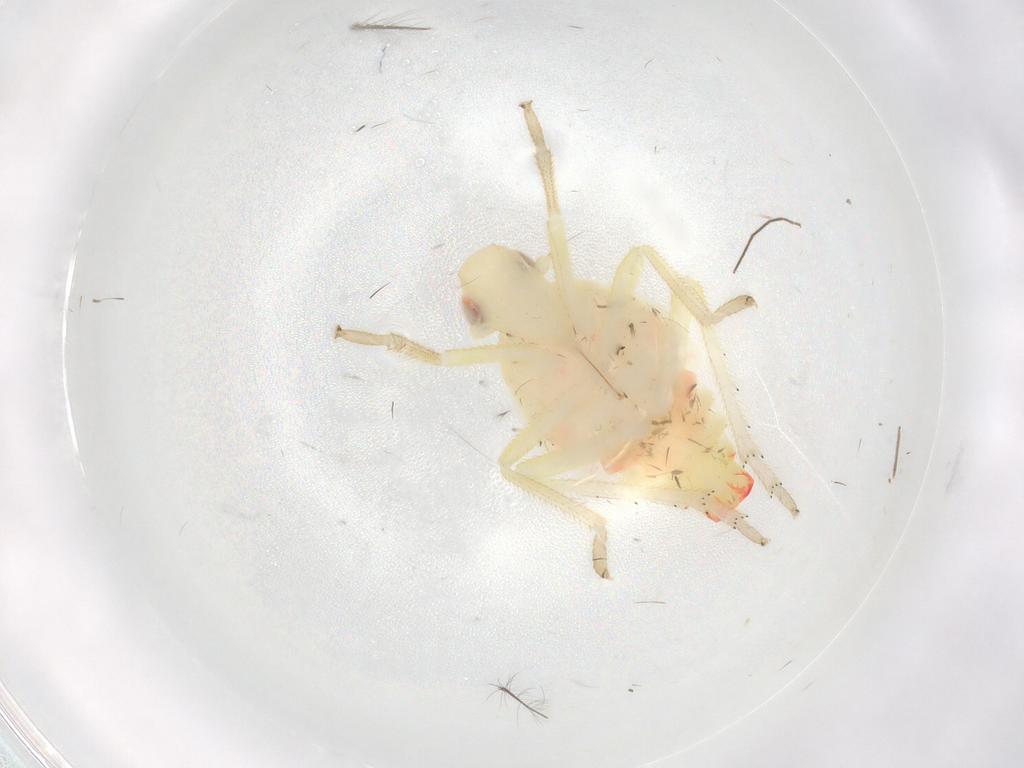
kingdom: Animalia
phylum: Arthropoda
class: Insecta
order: Hemiptera
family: Tropiduchidae
